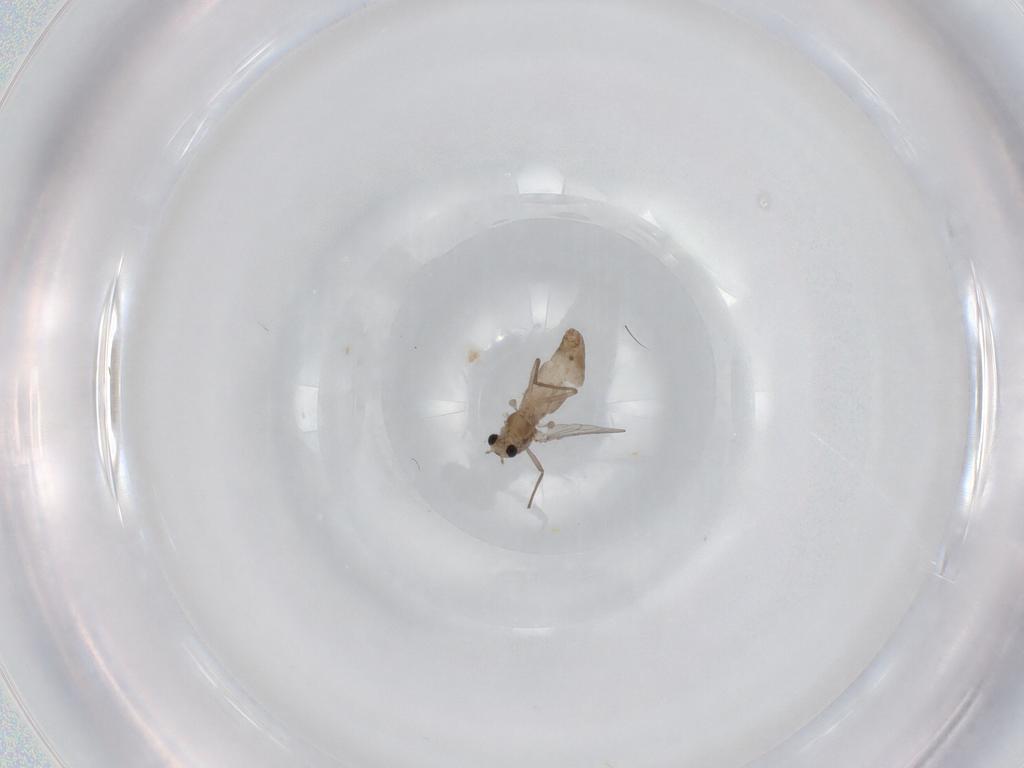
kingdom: Animalia
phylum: Arthropoda
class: Insecta
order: Diptera
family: Chironomidae
